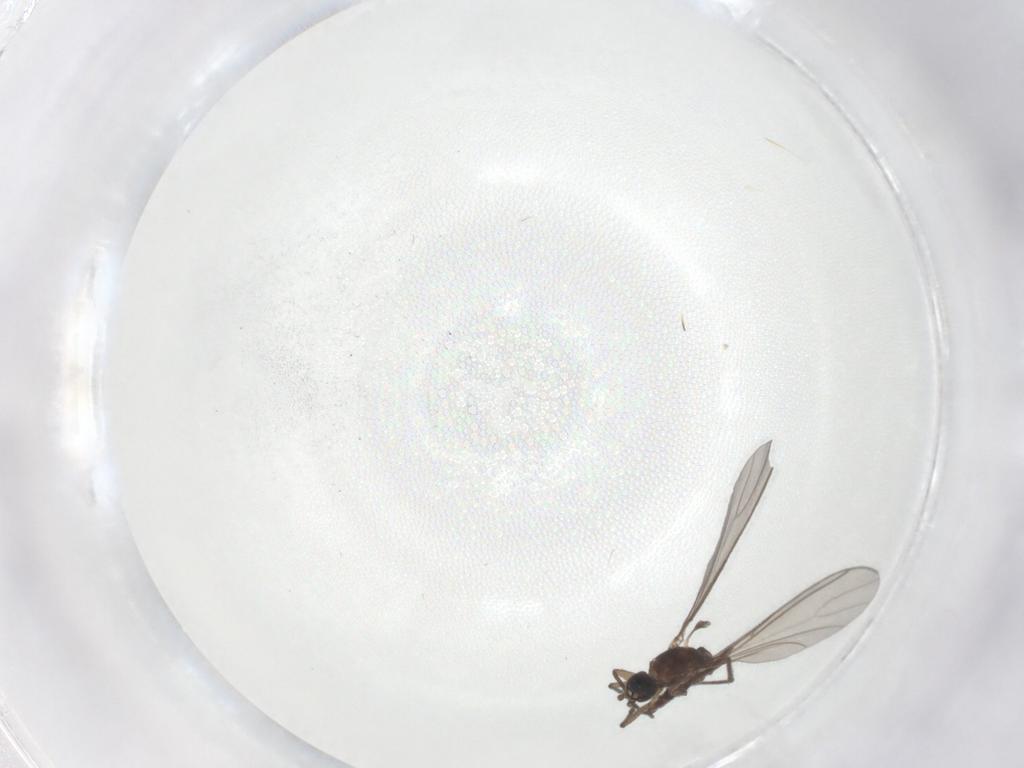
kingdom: Animalia
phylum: Arthropoda
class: Insecta
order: Diptera
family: Sciaridae
